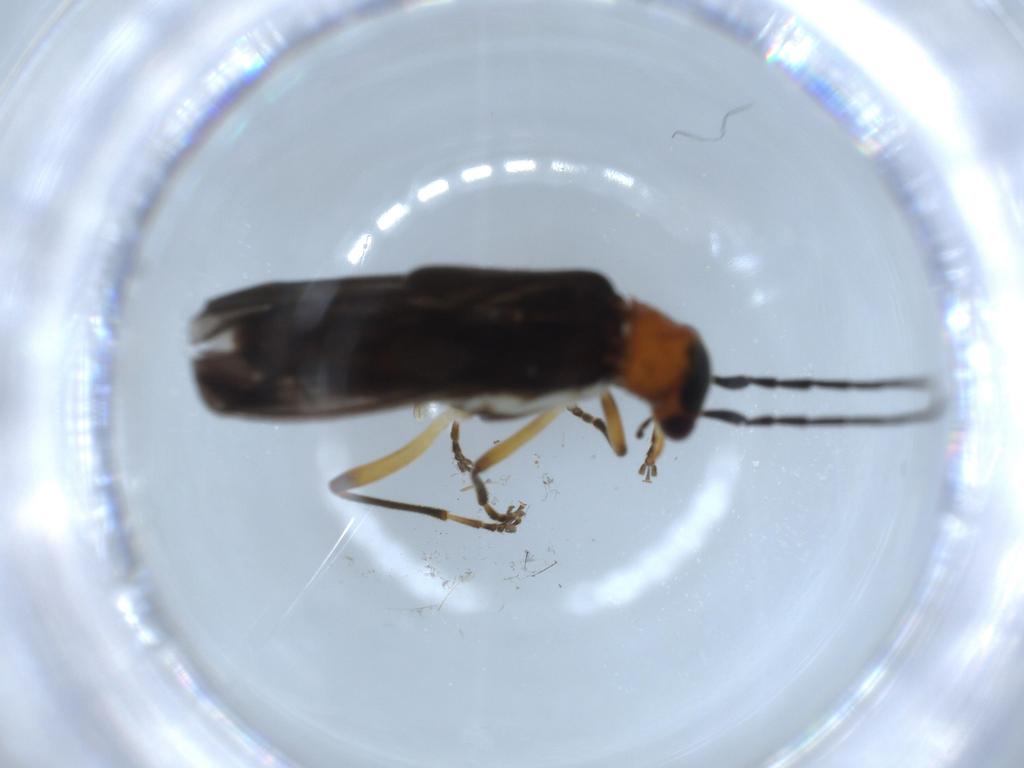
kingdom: Animalia
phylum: Arthropoda
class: Insecta
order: Coleoptera
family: Cantharidae
